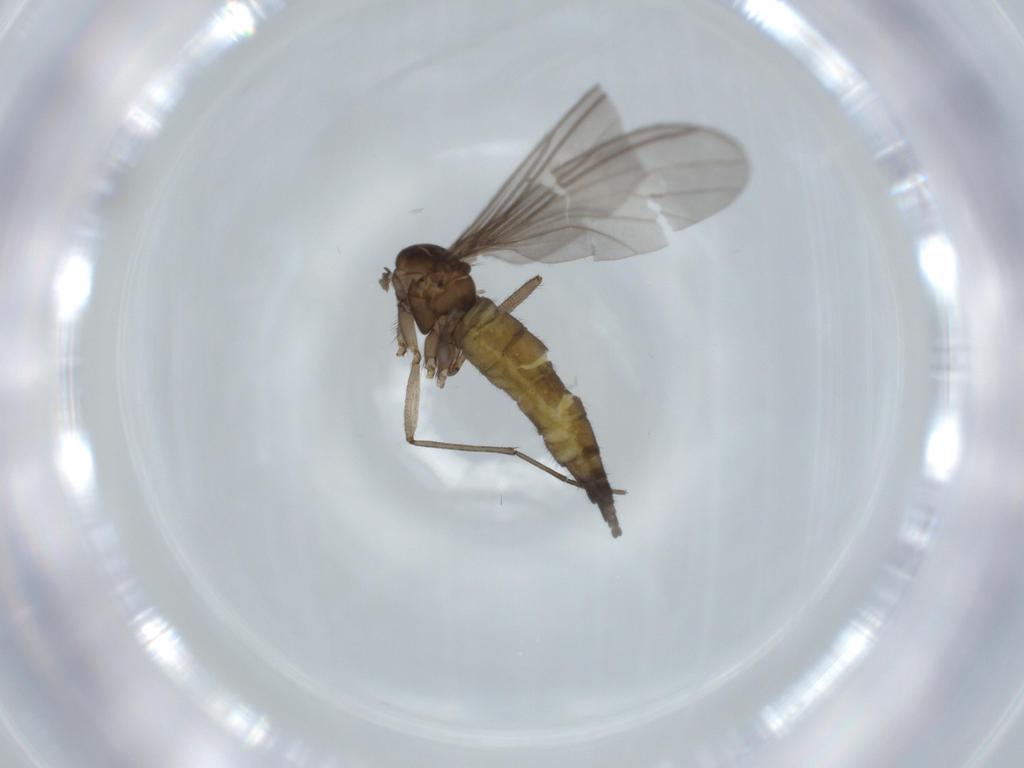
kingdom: Animalia
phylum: Arthropoda
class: Insecta
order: Diptera
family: Sciaridae
